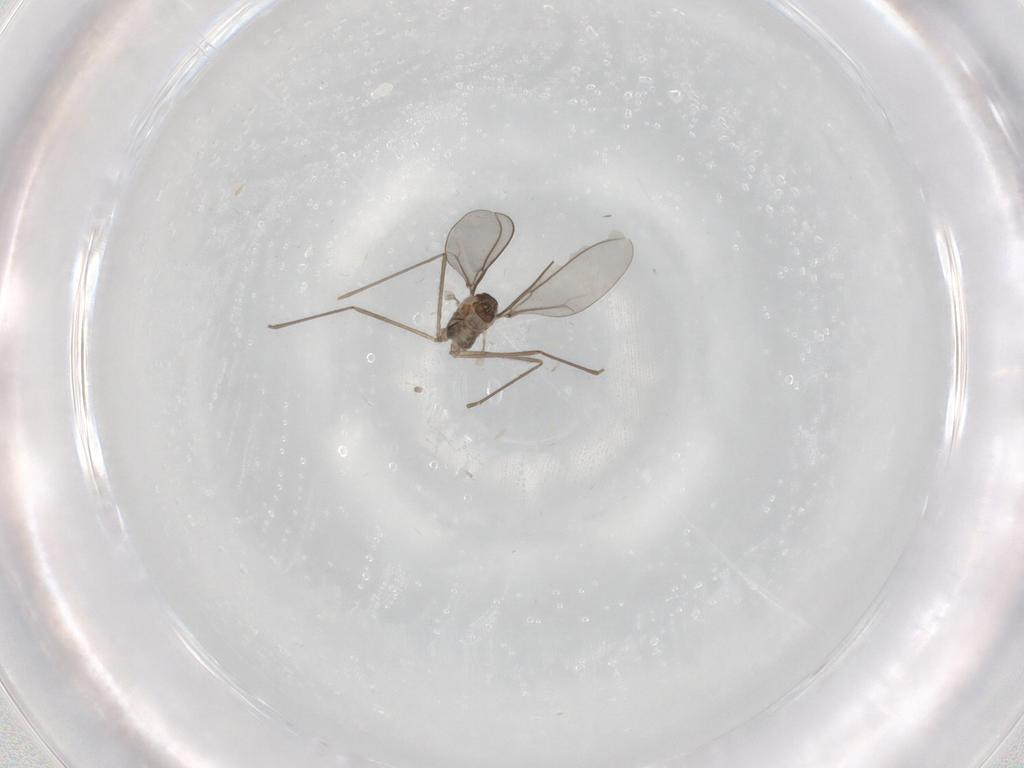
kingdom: Animalia
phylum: Arthropoda
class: Insecta
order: Diptera
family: Cecidomyiidae
